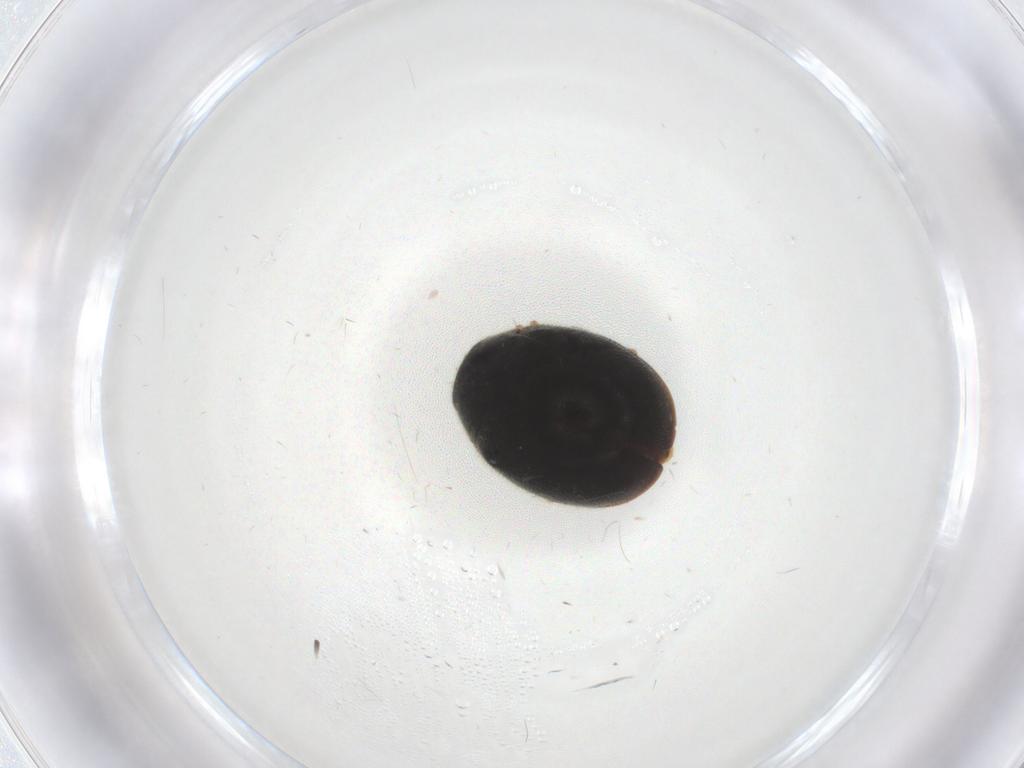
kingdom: Animalia
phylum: Arthropoda
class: Insecta
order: Coleoptera
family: Coccinellidae
